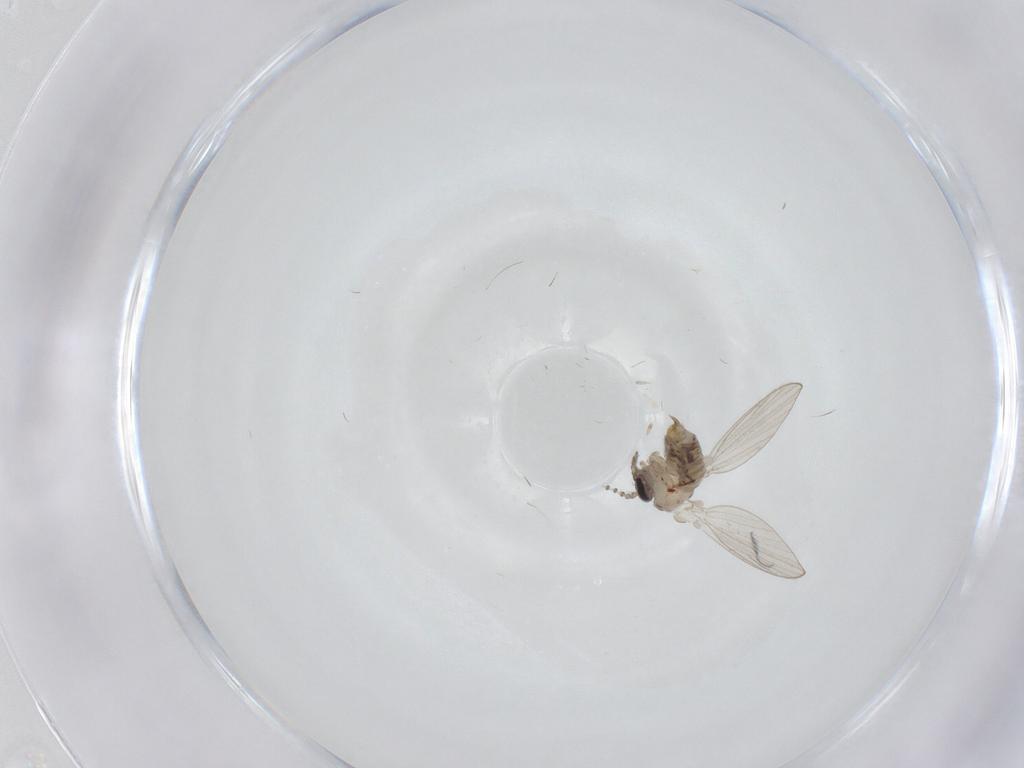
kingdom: Animalia
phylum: Arthropoda
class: Insecta
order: Diptera
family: Psychodidae
